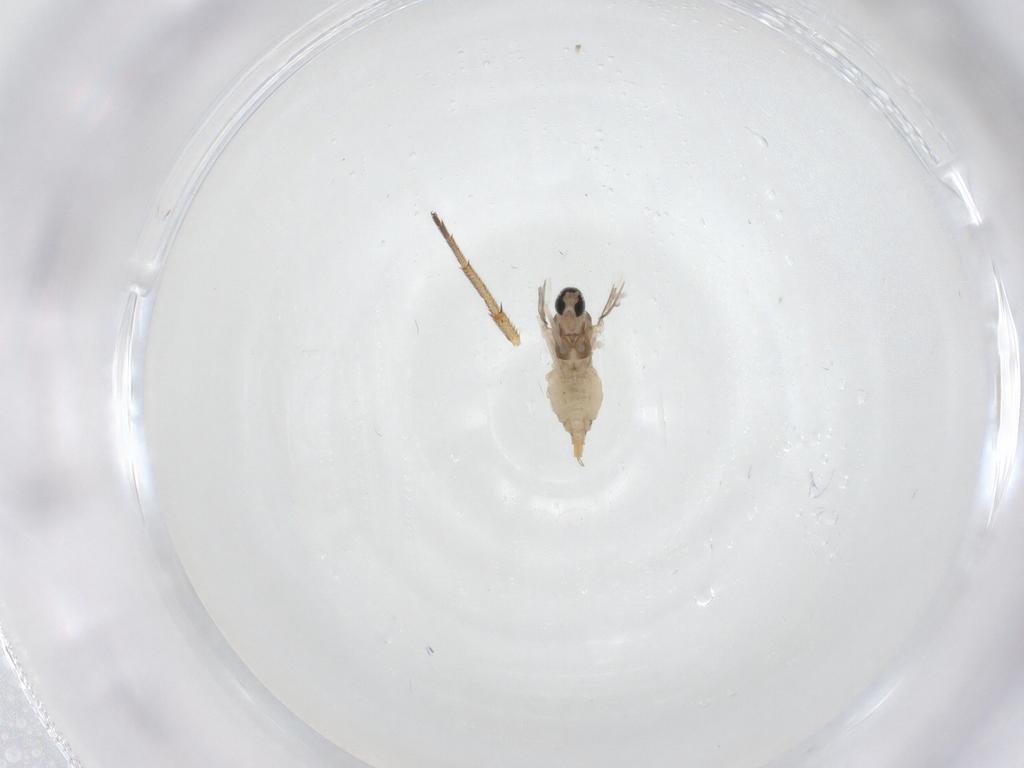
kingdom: Animalia
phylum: Arthropoda
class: Insecta
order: Diptera
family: Cecidomyiidae
